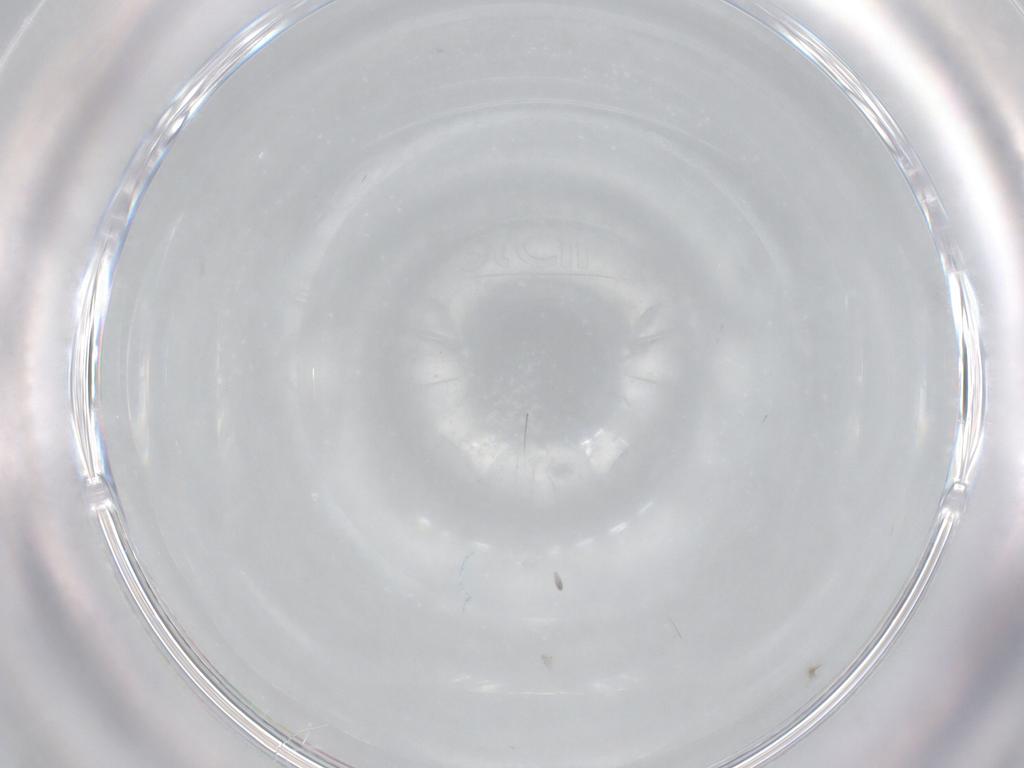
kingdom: Animalia
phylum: Arthropoda
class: Arachnida
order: Trombidiformes
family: Anystidae
